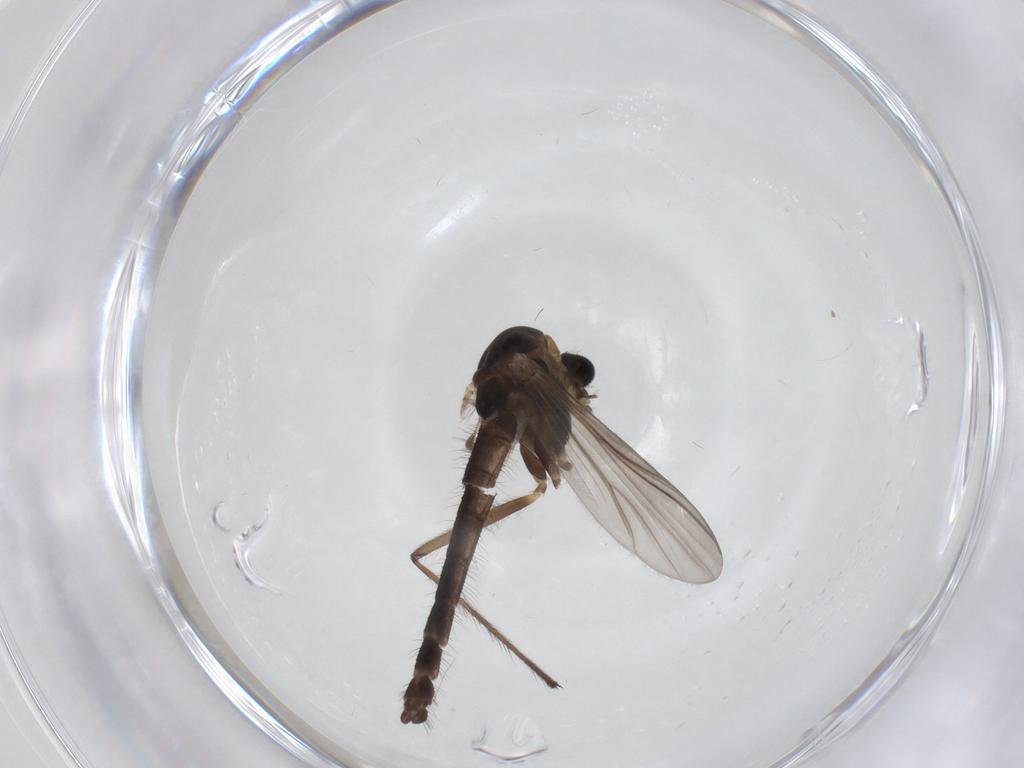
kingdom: Animalia
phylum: Arthropoda
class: Insecta
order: Diptera
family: Chironomidae
